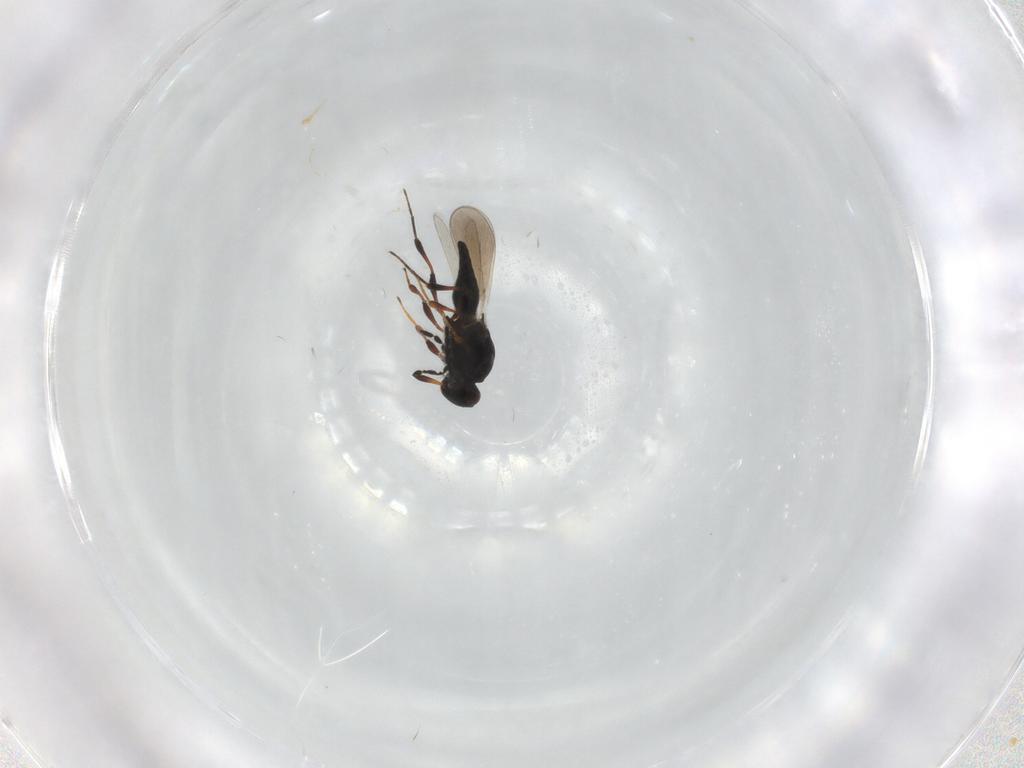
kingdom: Animalia
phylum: Arthropoda
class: Insecta
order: Hymenoptera
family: Platygastridae
